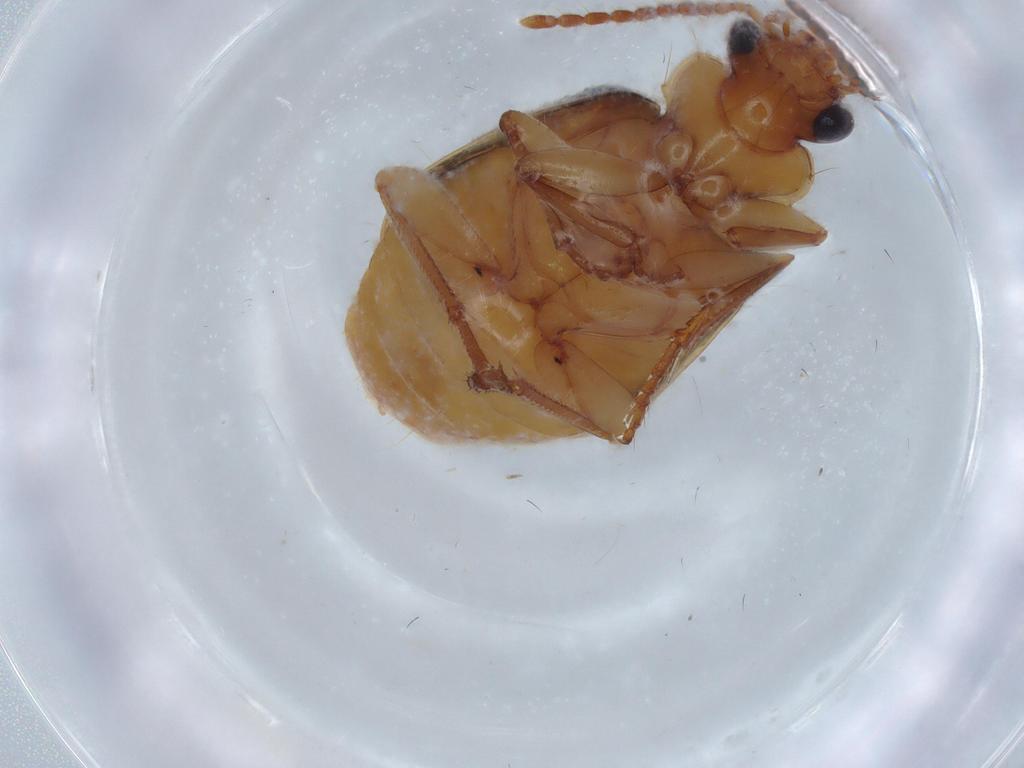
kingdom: Animalia
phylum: Arthropoda
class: Insecta
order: Coleoptera
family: Carabidae
